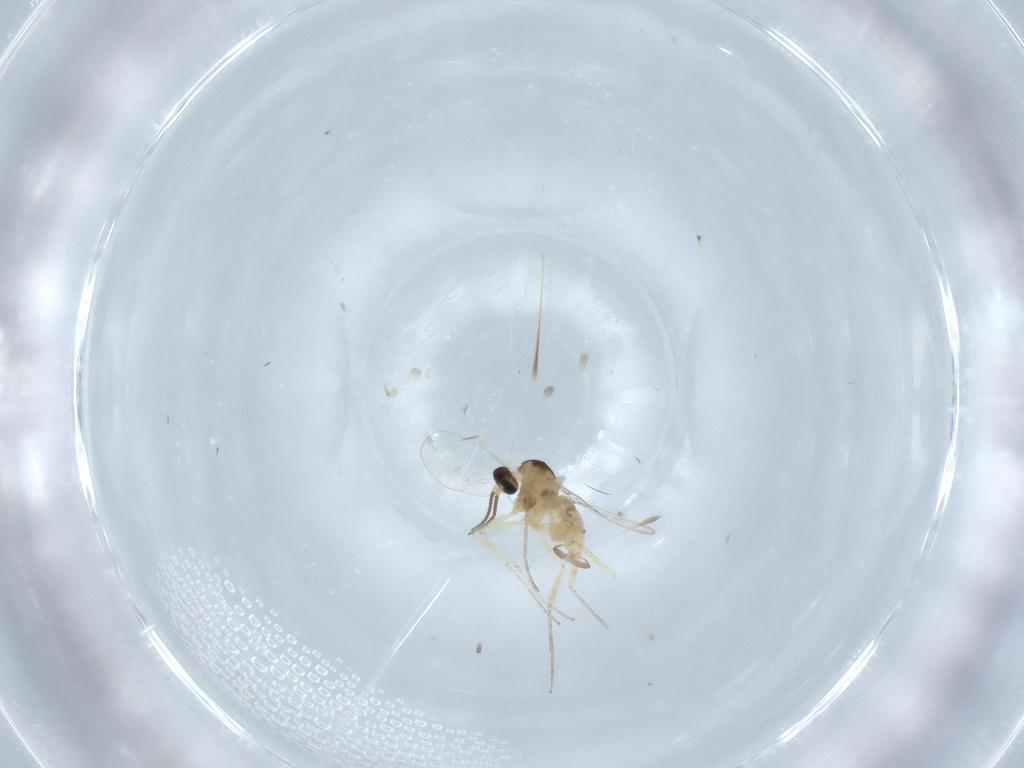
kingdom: Animalia
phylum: Arthropoda
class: Insecta
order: Diptera
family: Cecidomyiidae
